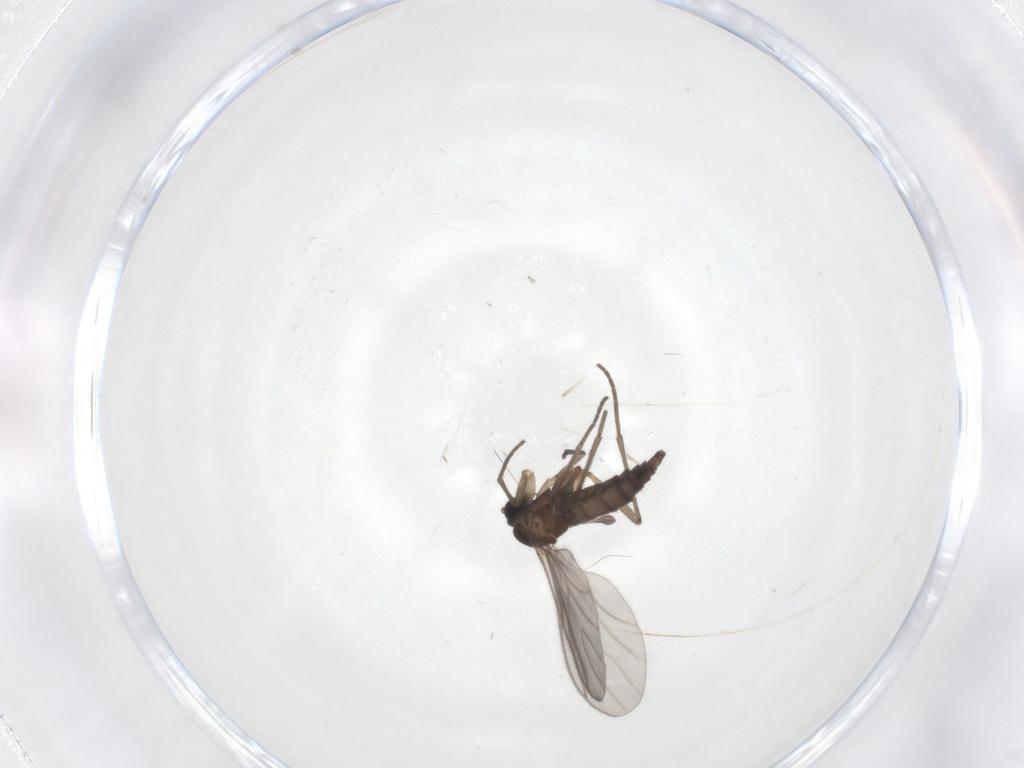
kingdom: Animalia
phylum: Arthropoda
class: Insecta
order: Diptera
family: Sciaridae
